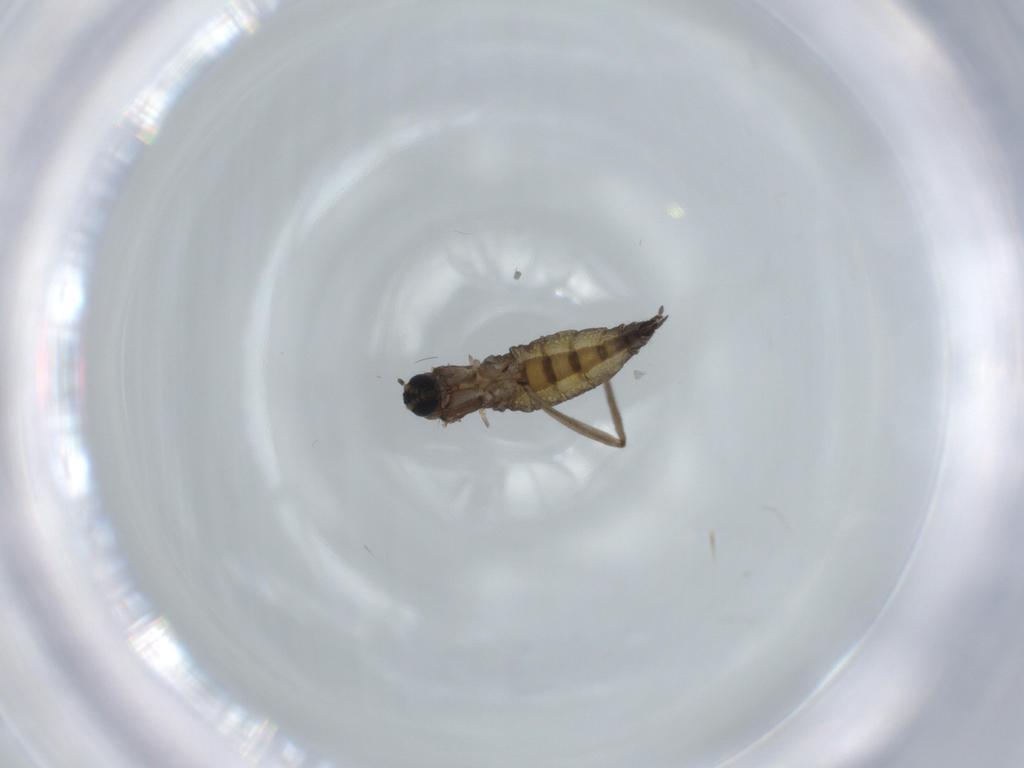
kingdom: Animalia
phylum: Arthropoda
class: Insecta
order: Diptera
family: Sciaridae
